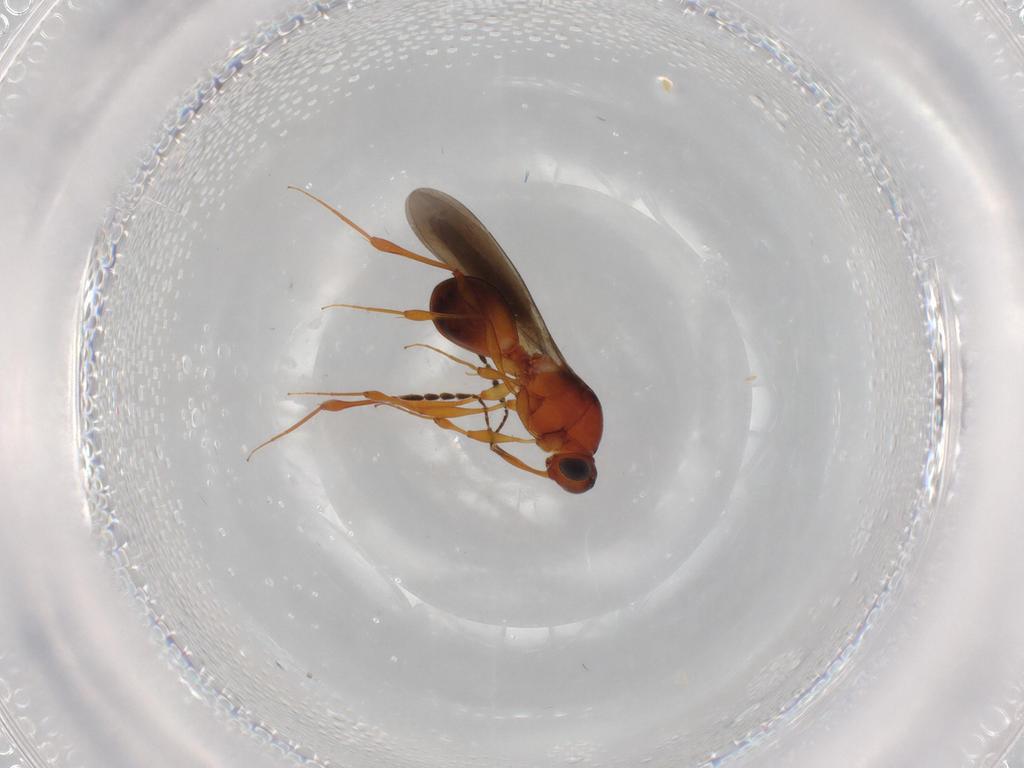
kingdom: Animalia
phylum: Arthropoda
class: Insecta
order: Hymenoptera
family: Platygastridae
